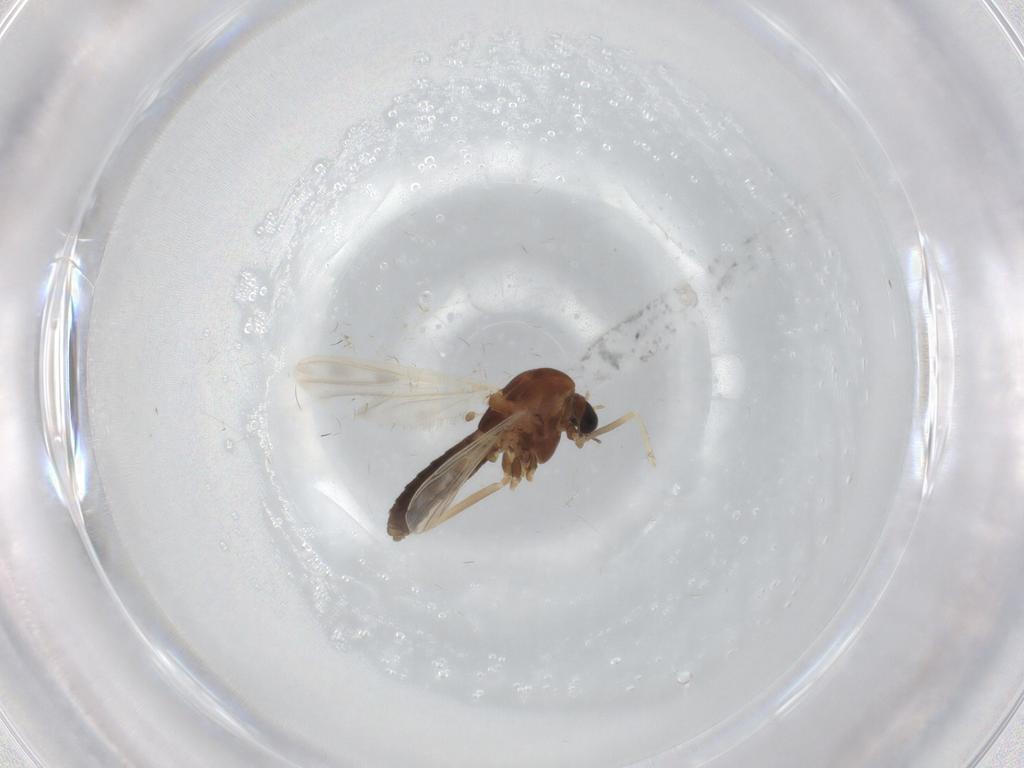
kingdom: Animalia
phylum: Arthropoda
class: Insecta
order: Diptera
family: Chironomidae
